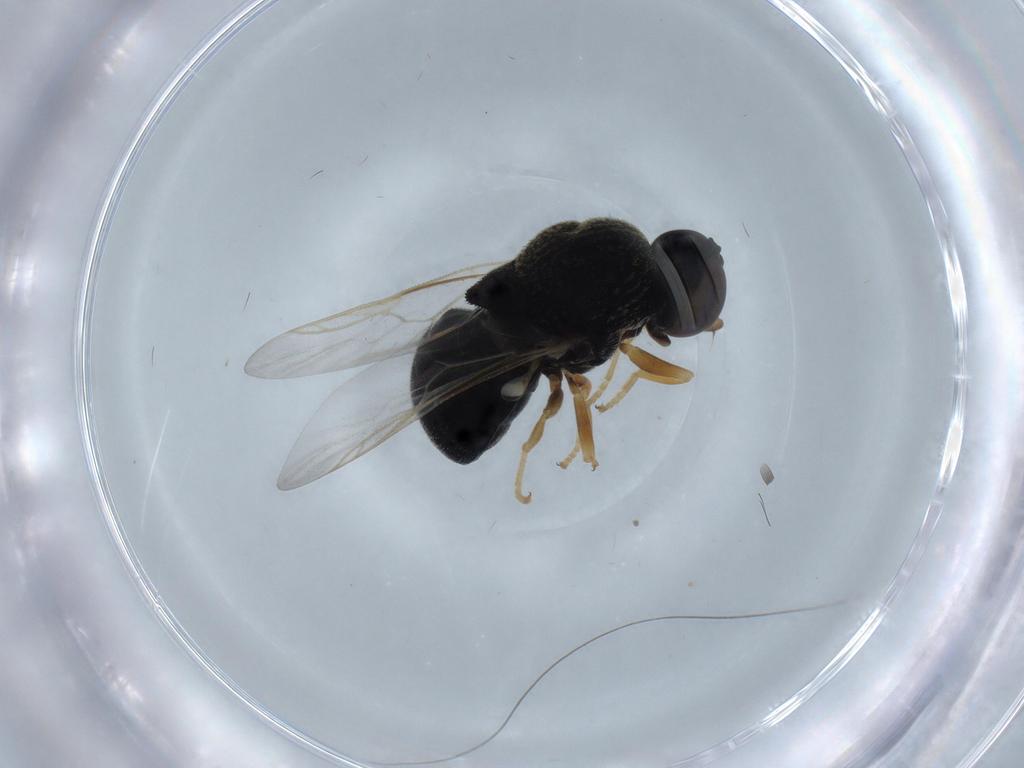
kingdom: Animalia
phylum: Arthropoda
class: Insecta
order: Diptera
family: Stratiomyidae
